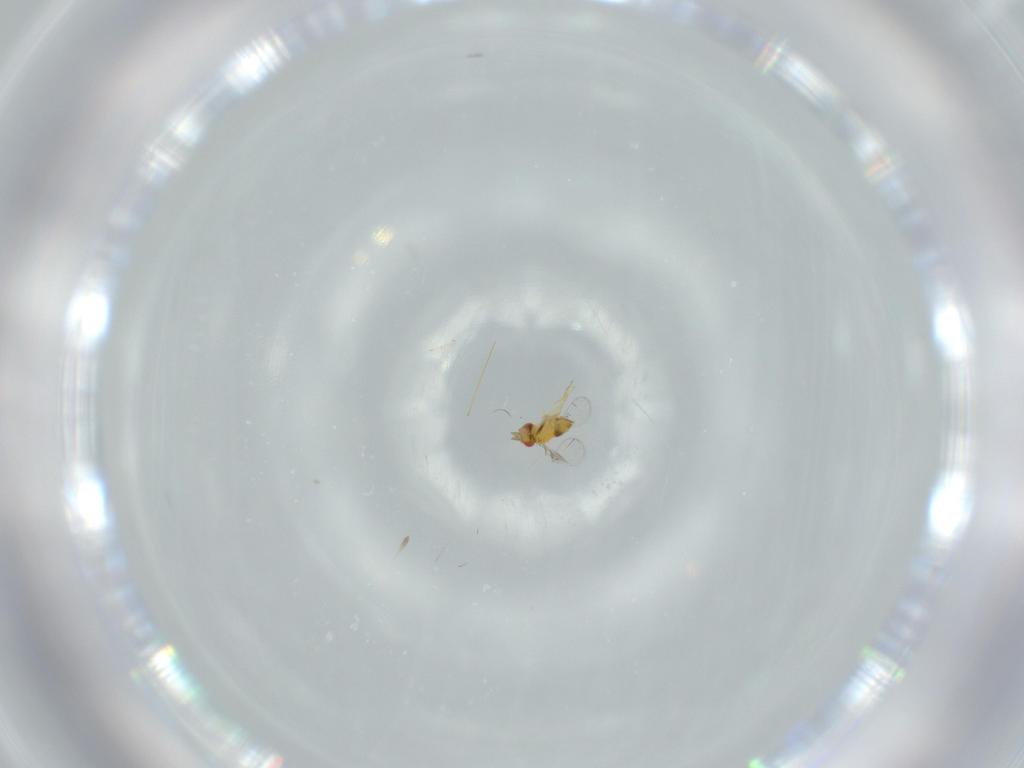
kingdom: Animalia
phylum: Arthropoda
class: Insecta
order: Hymenoptera
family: Trichogrammatidae
